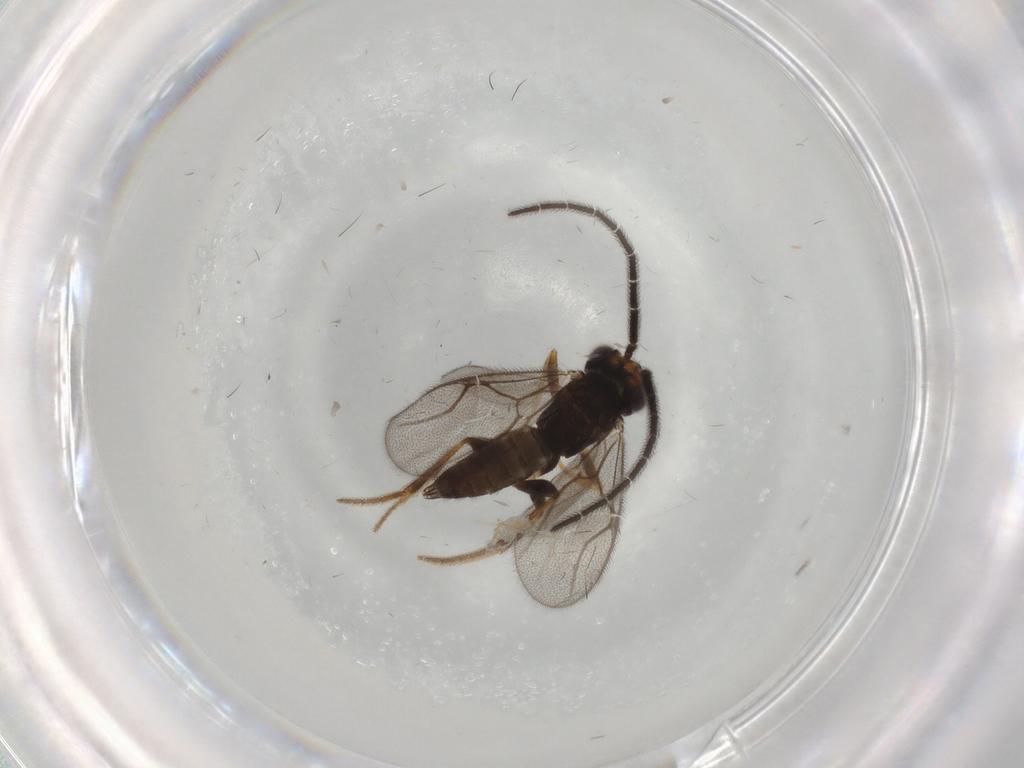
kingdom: Animalia
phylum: Arthropoda
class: Insecta
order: Hymenoptera
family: Dryinidae
